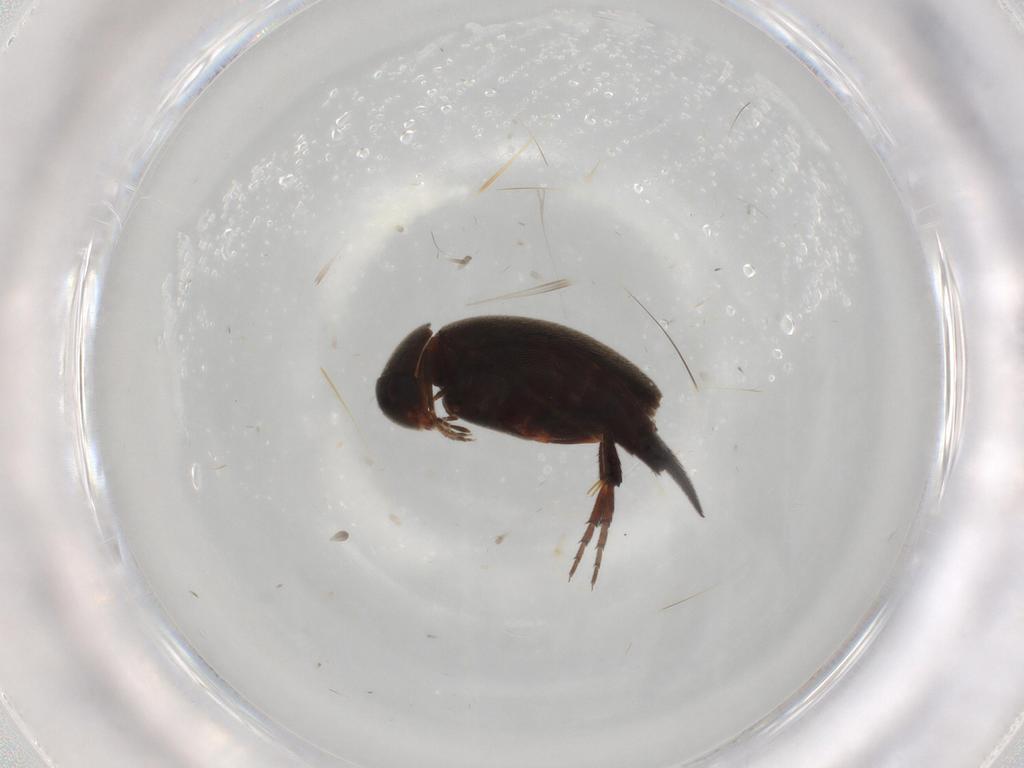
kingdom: Animalia
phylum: Arthropoda
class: Insecta
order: Coleoptera
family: Mordellidae
